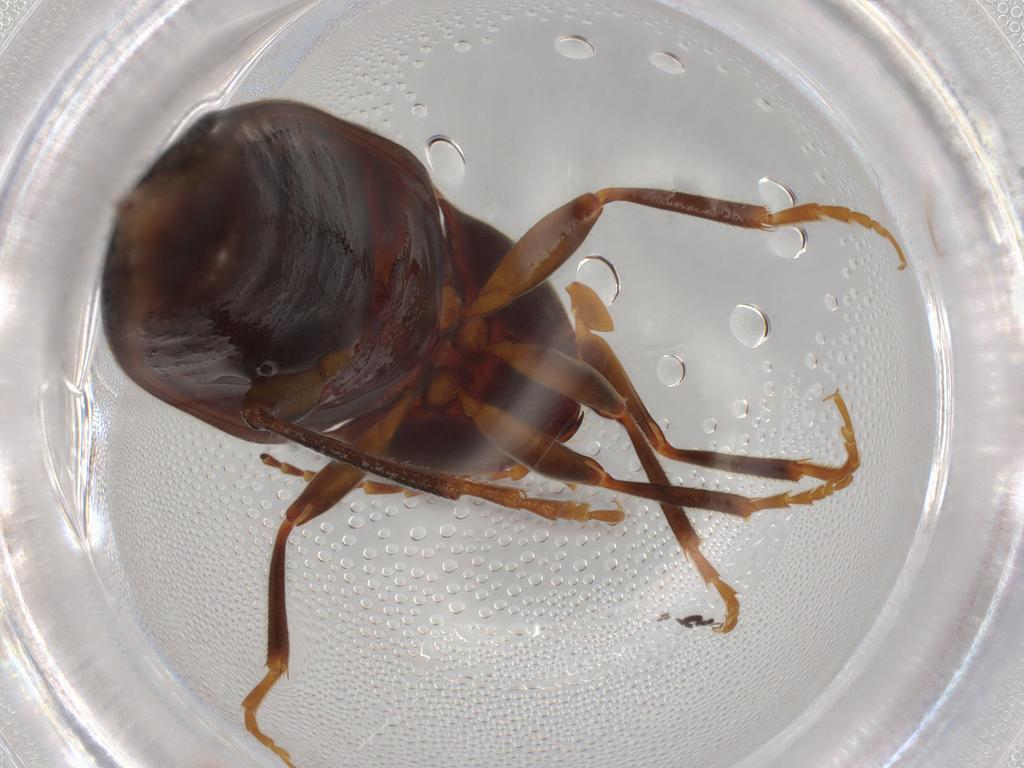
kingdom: Animalia
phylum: Arthropoda
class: Insecta
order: Coleoptera
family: Elateridae
